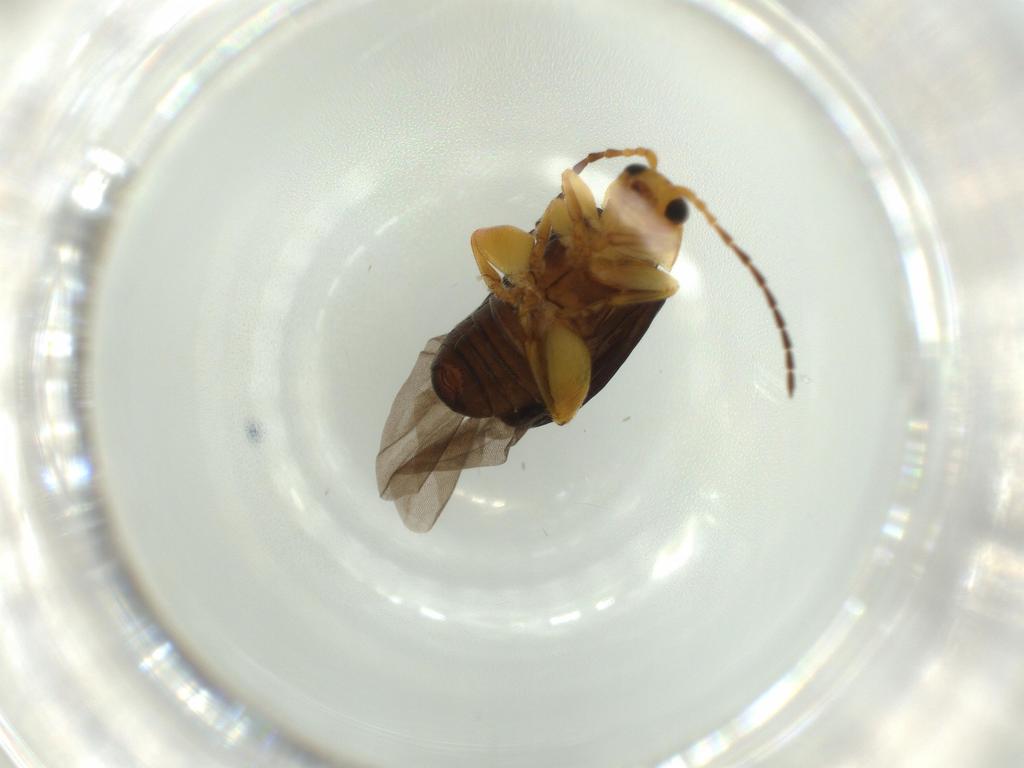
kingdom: Animalia
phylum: Arthropoda
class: Insecta
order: Coleoptera
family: Chrysomelidae
